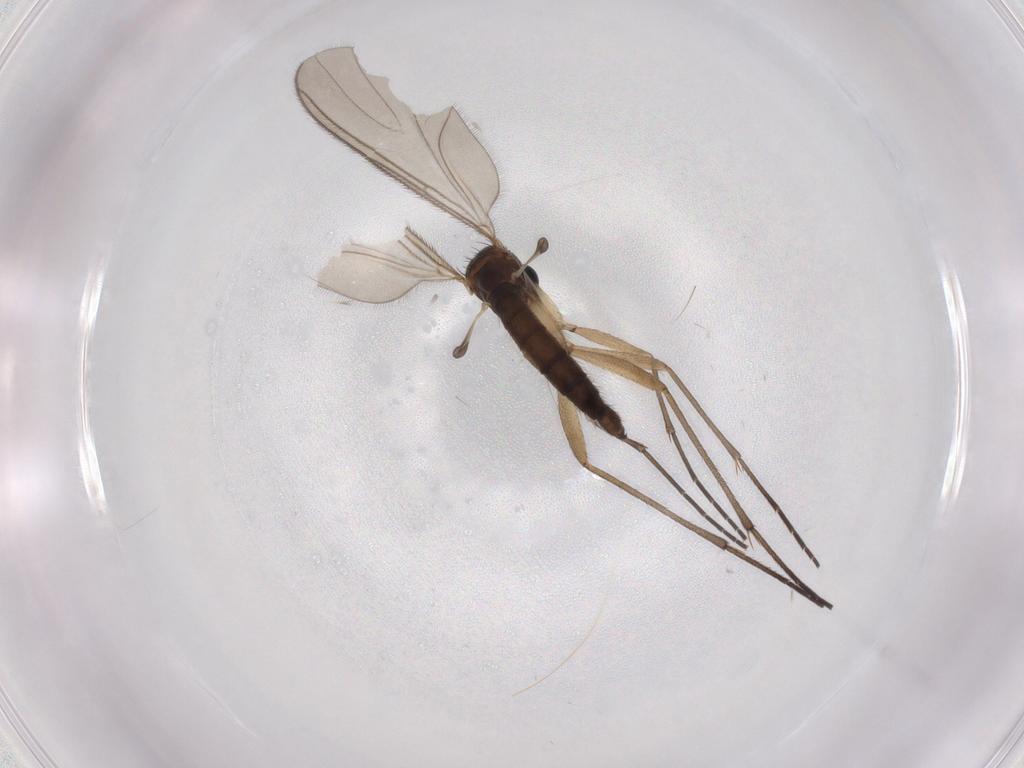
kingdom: Animalia
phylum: Arthropoda
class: Insecta
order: Diptera
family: Sciaridae
